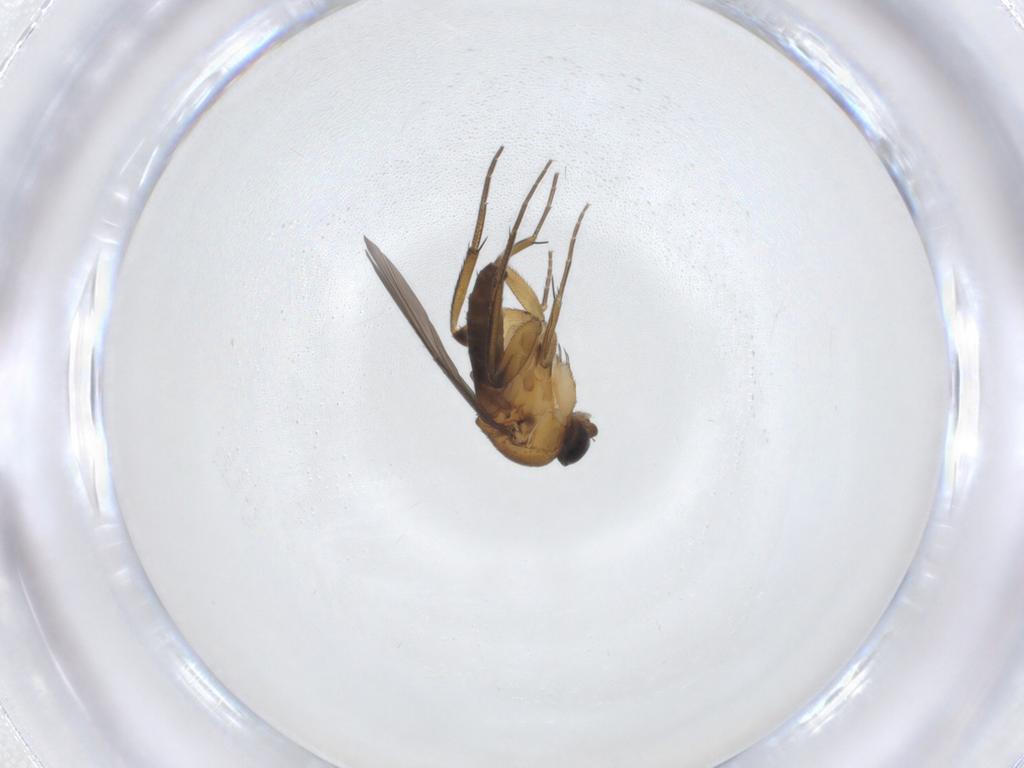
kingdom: Animalia
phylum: Arthropoda
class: Insecta
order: Diptera
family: Phoridae
